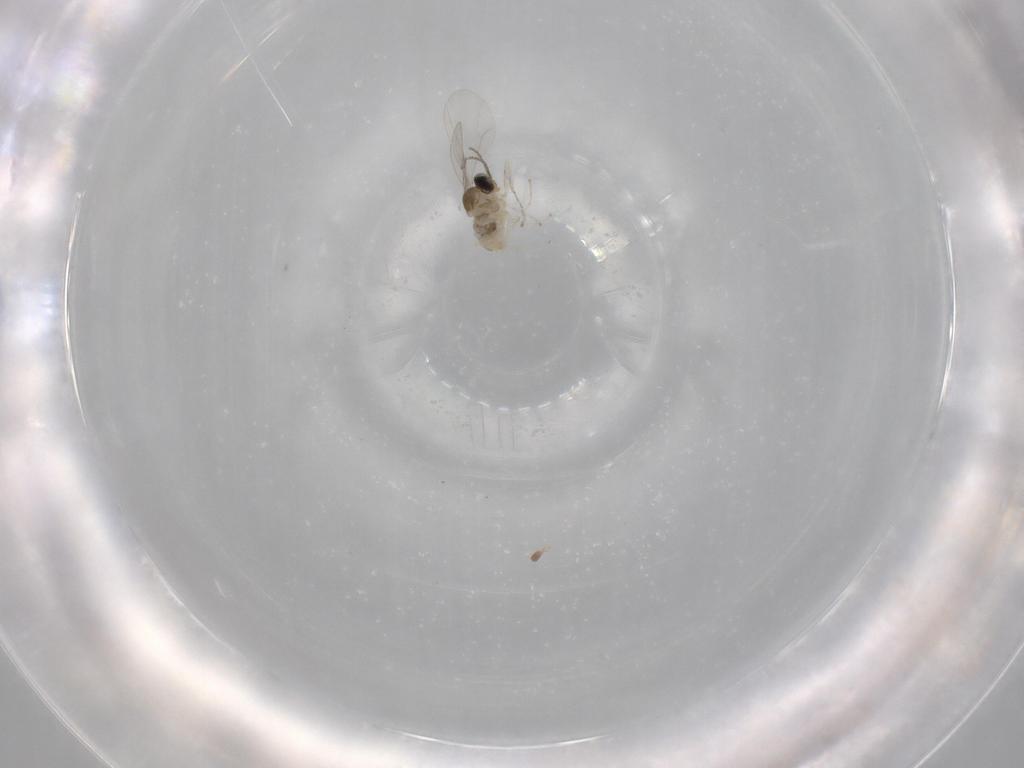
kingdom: Animalia
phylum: Arthropoda
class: Insecta
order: Diptera
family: Cecidomyiidae
